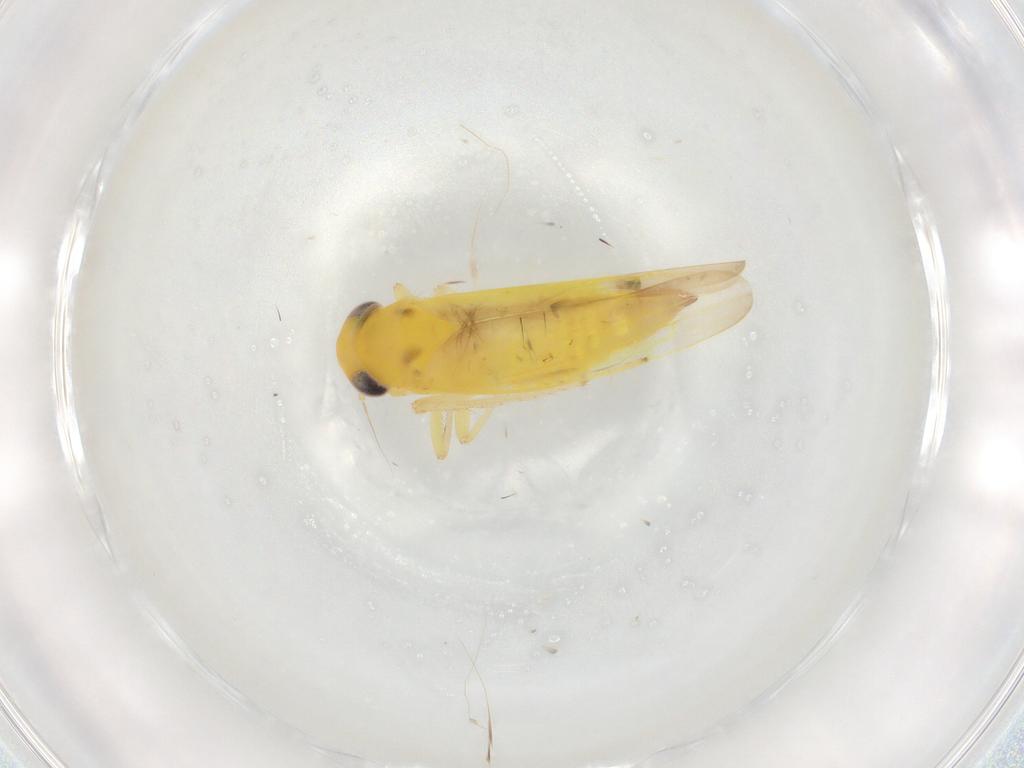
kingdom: Animalia
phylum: Arthropoda
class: Insecta
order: Hemiptera
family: Cicadellidae
